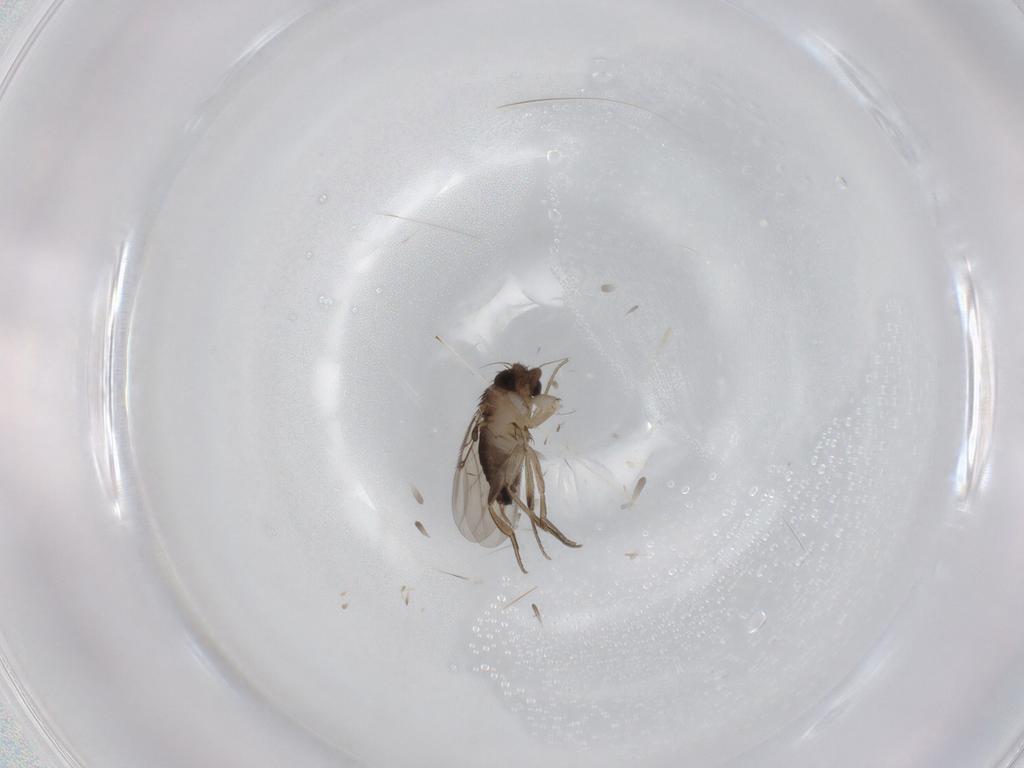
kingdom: Animalia
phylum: Arthropoda
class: Insecta
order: Diptera
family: Phoridae
